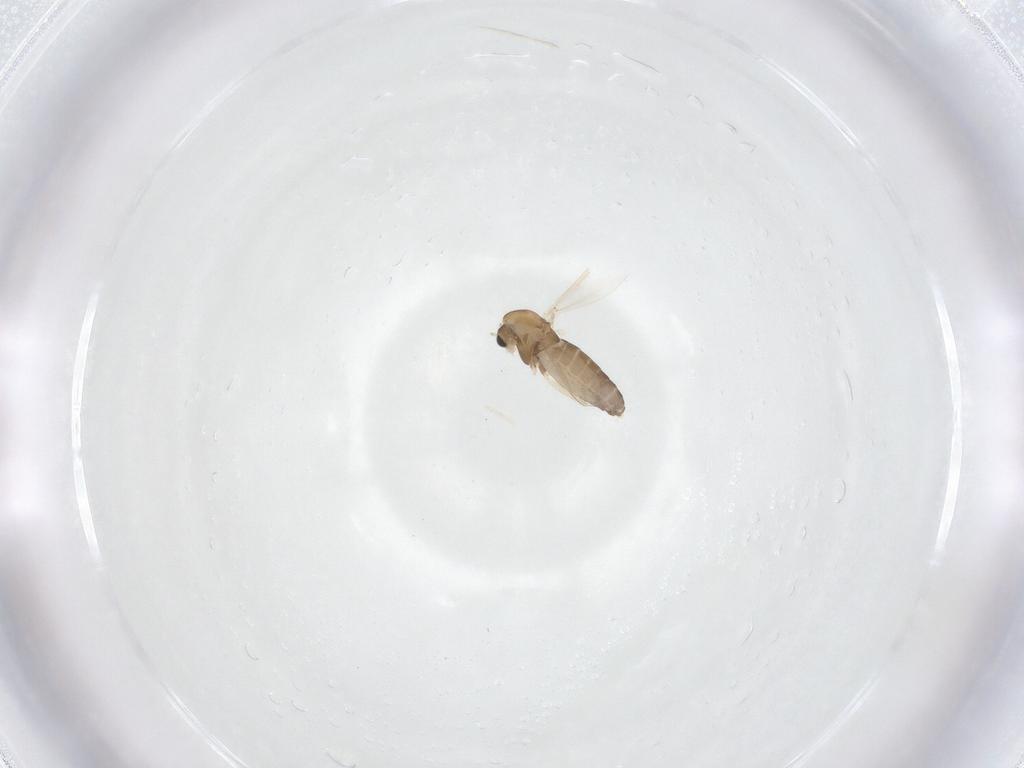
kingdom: Animalia
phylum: Arthropoda
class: Insecta
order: Diptera
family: Chironomidae
